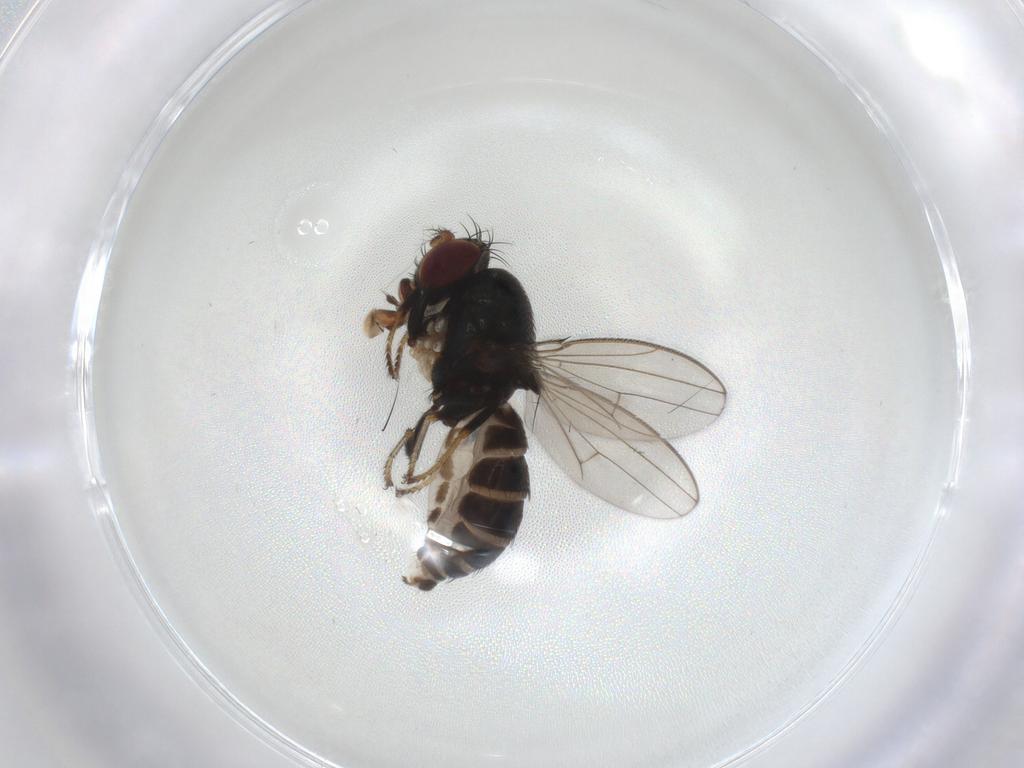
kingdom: Animalia
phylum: Arthropoda
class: Insecta
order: Diptera
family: Ephydridae
